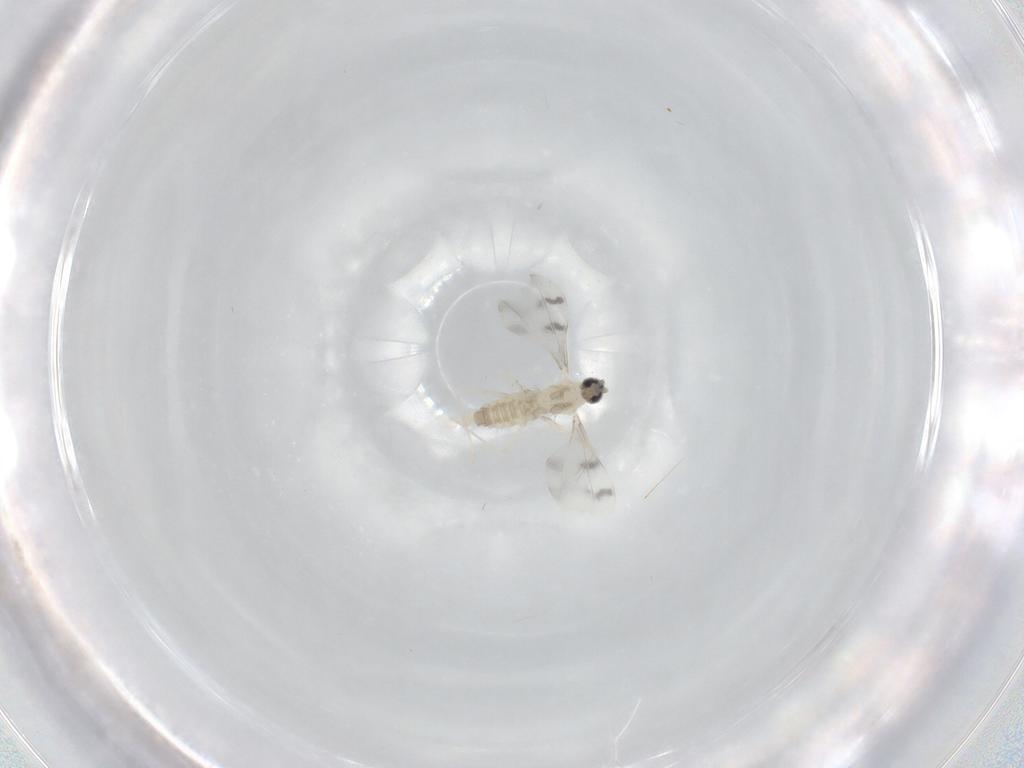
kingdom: Animalia
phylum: Arthropoda
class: Insecta
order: Diptera
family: Cecidomyiidae
